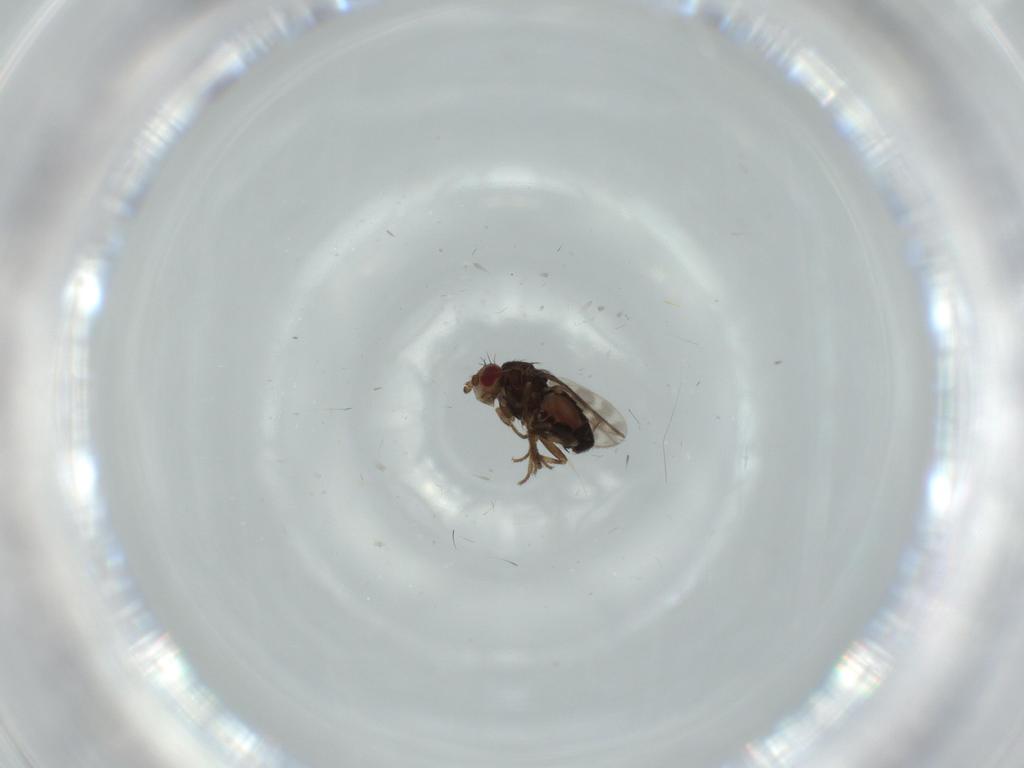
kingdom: Animalia
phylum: Arthropoda
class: Insecta
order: Diptera
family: Sphaeroceridae
